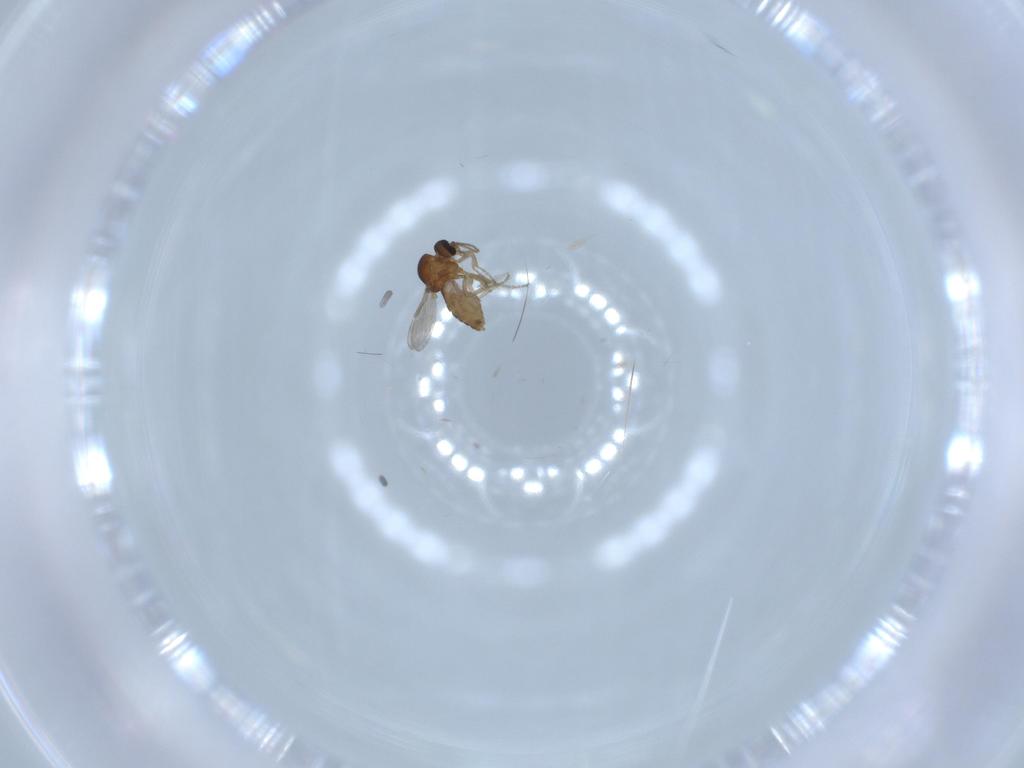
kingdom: Animalia
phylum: Arthropoda
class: Insecta
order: Diptera
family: Ceratopogonidae
